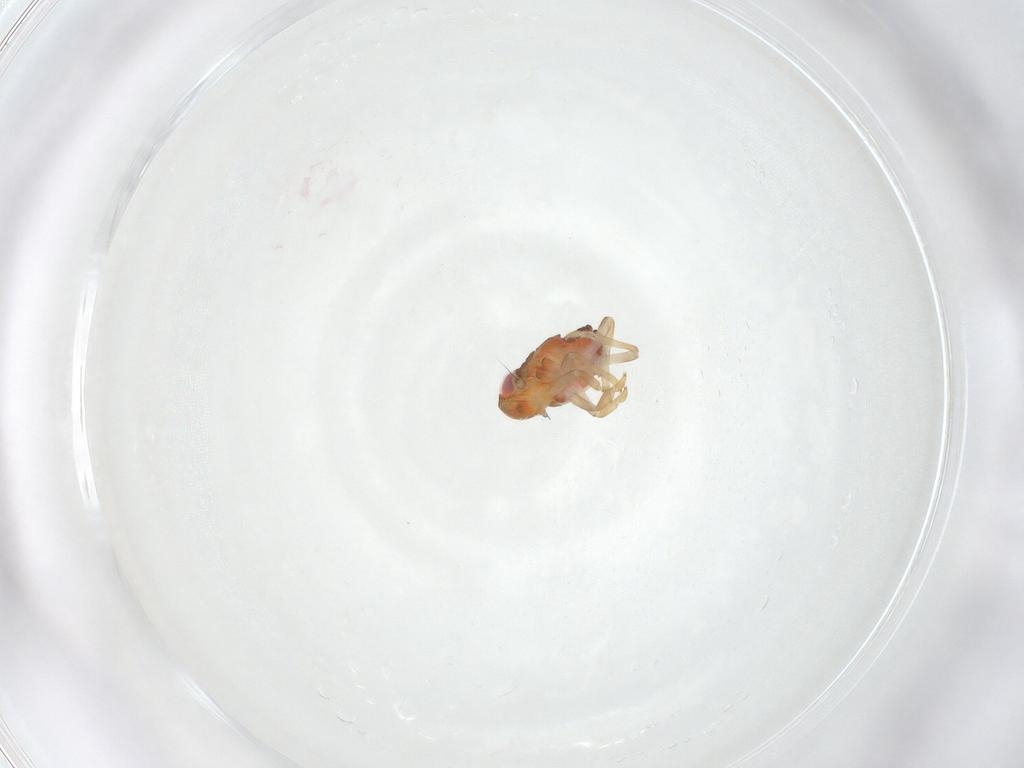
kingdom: Animalia
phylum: Arthropoda
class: Insecta
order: Hemiptera
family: Issidae
